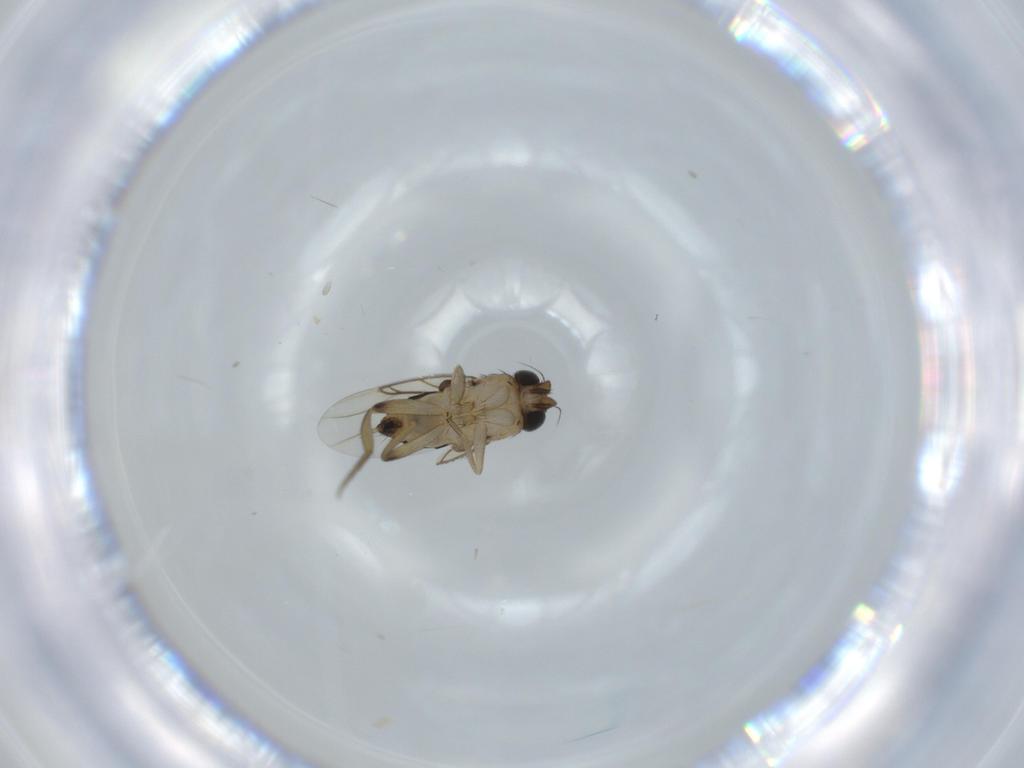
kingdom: Animalia
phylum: Arthropoda
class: Insecta
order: Diptera
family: Phoridae
